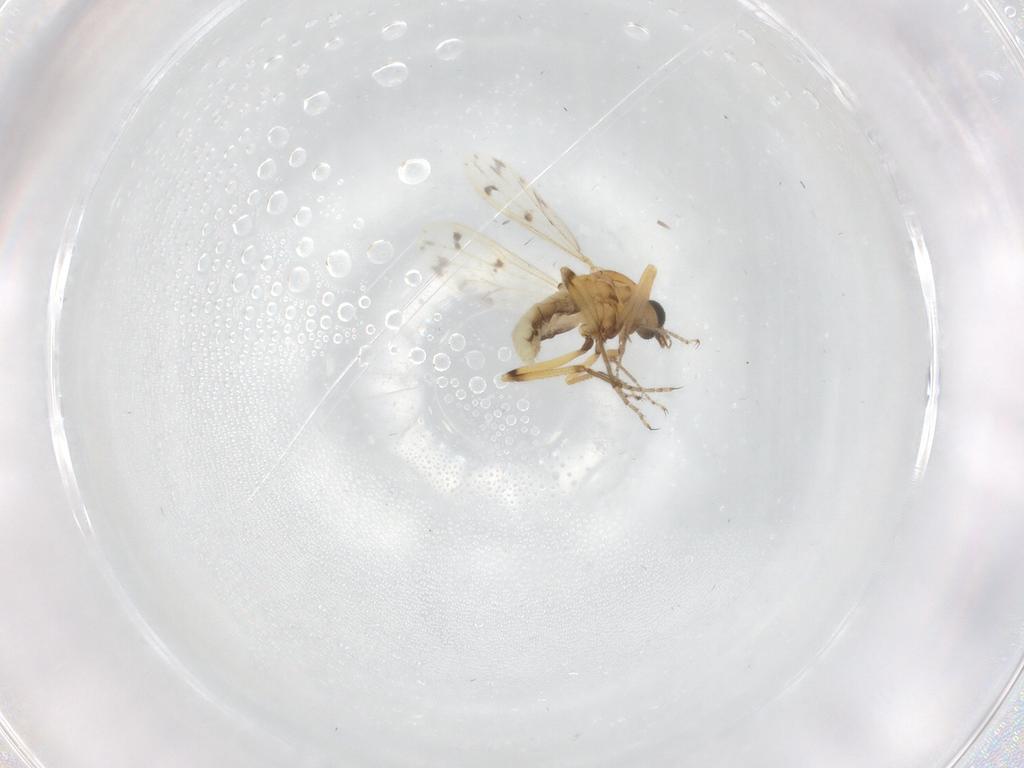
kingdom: Animalia
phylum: Arthropoda
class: Insecta
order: Diptera
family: Ceratopogonidae
